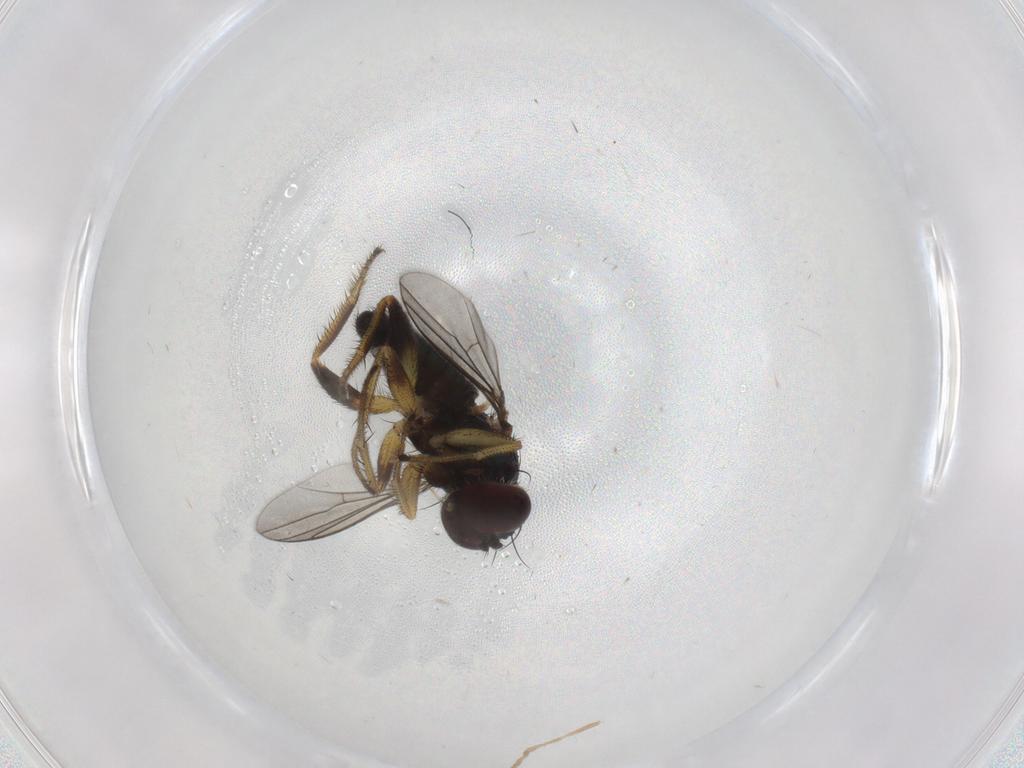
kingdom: Animalia
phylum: Arthropoda
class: Insecta
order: Diptera
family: Dolichopodidae
